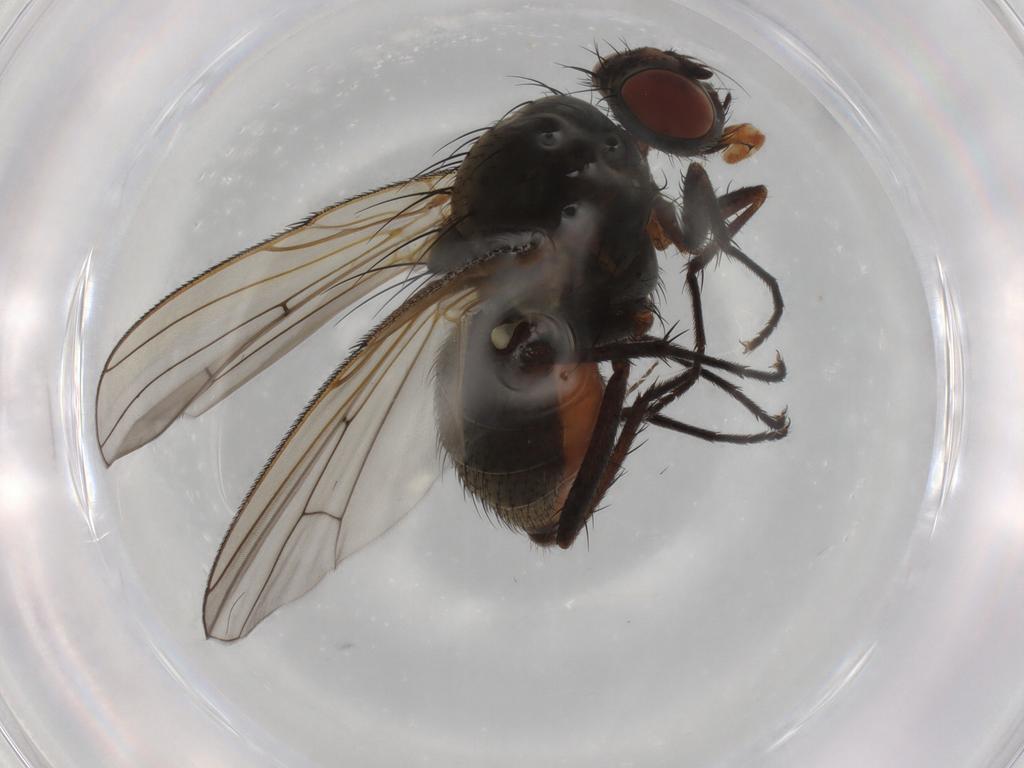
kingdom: Animalia
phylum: Arthropoda
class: Insecta
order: Diptera
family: Anthomyiidae
